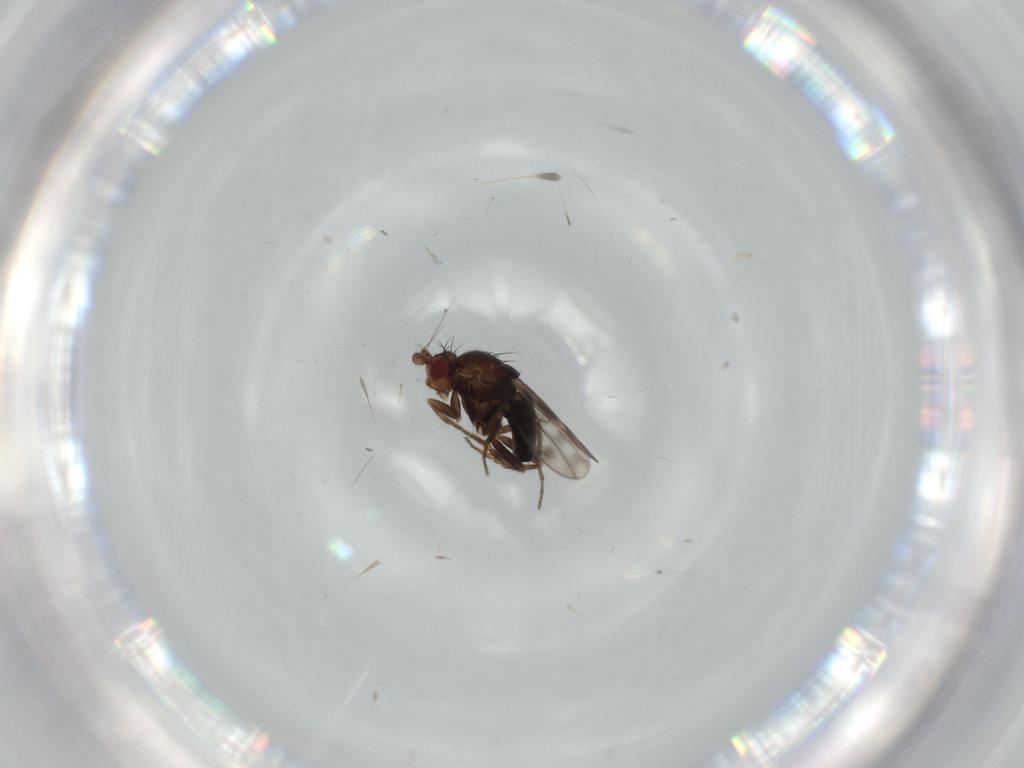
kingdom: Animalia
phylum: Arthropoda
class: Insecta
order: Diptera
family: Sphaeroceridae
